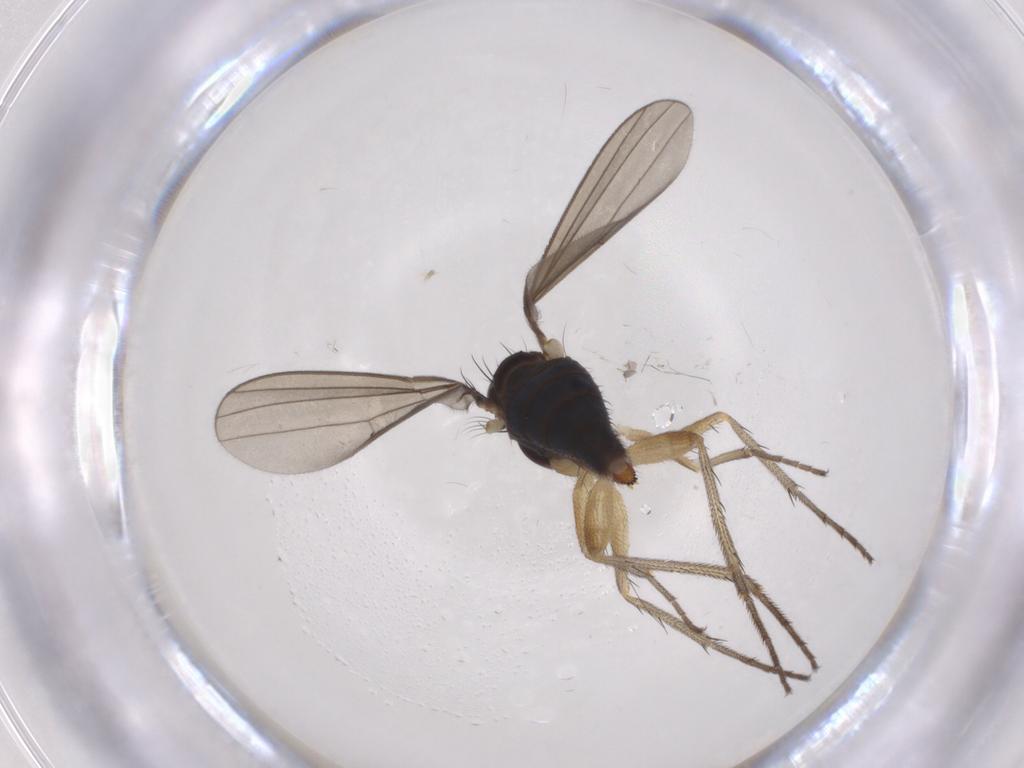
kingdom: Animalia
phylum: Arthropoda
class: Insecta
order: Diptera
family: Dolichopodidae
